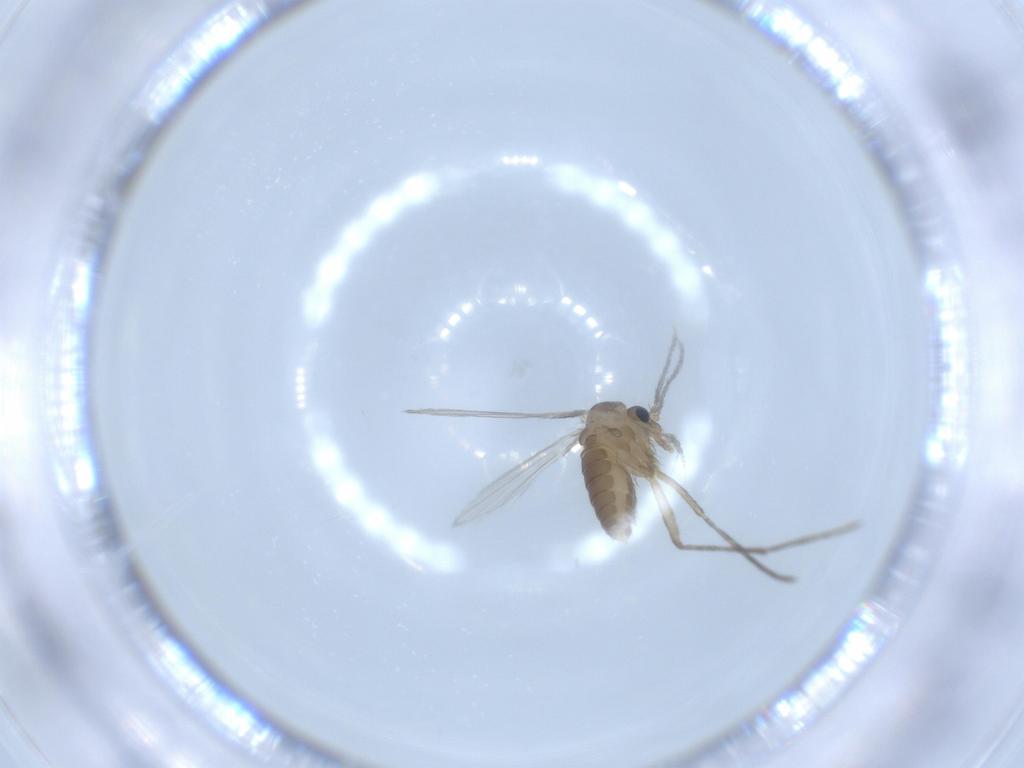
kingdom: Animalia
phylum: Arthropoda
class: Insecta
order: Diptera
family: Psychodidae
